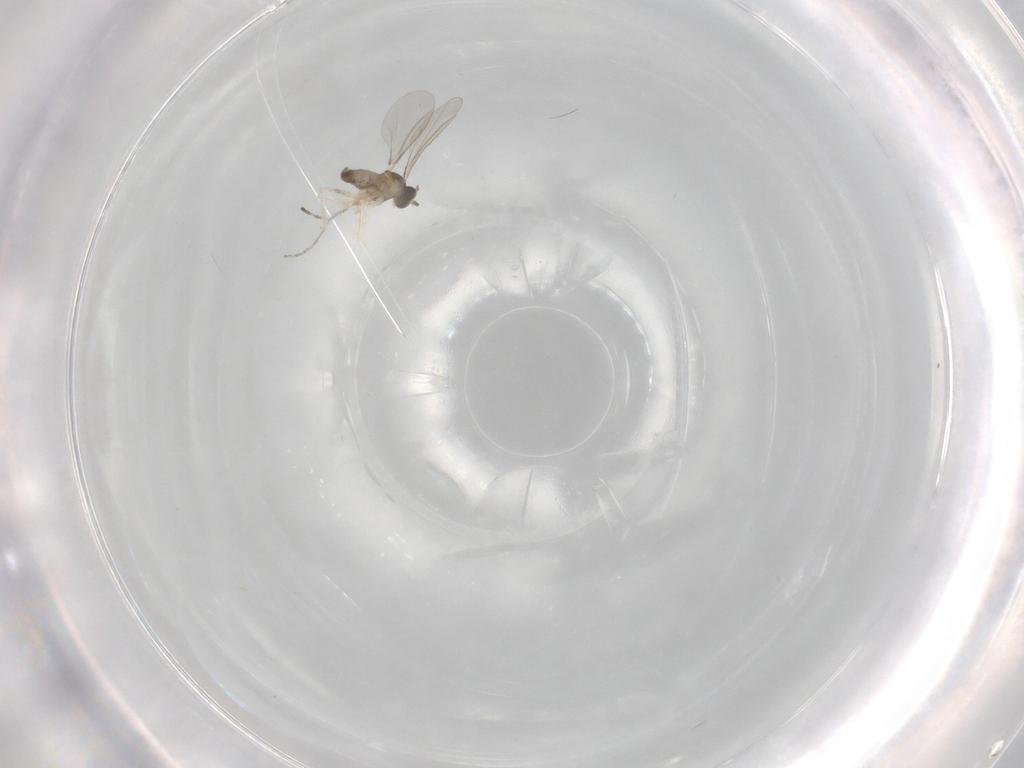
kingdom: Animalia
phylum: Arthropoda
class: Insecta
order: Diptera
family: Cecidomyiidae
